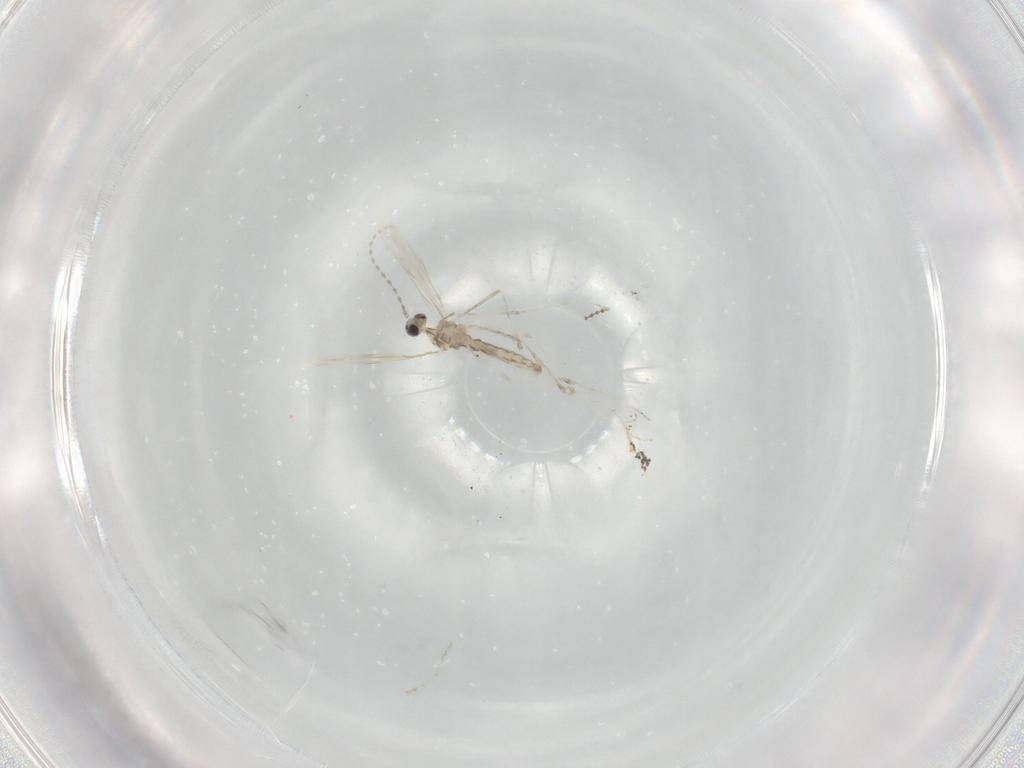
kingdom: Animalia
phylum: Arthropoda
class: Insecta
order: Diptera
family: Cecidomyiidae
